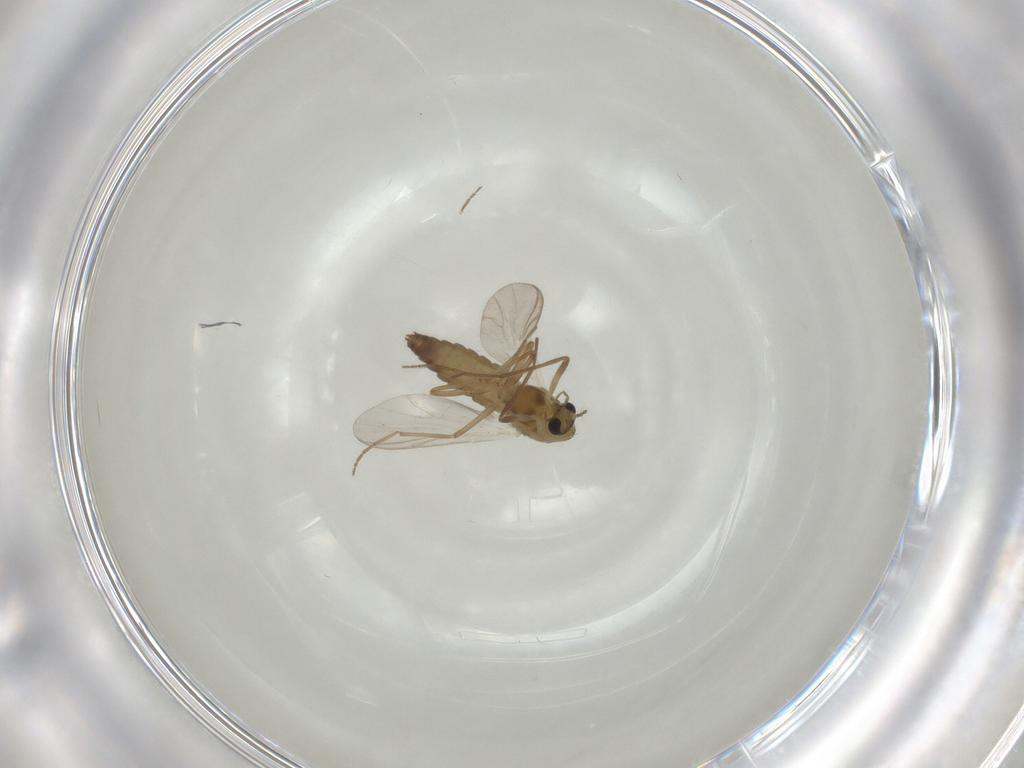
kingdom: Animalia
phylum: Arthropoda
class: Insecta
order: Diptera
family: Chironomidae
